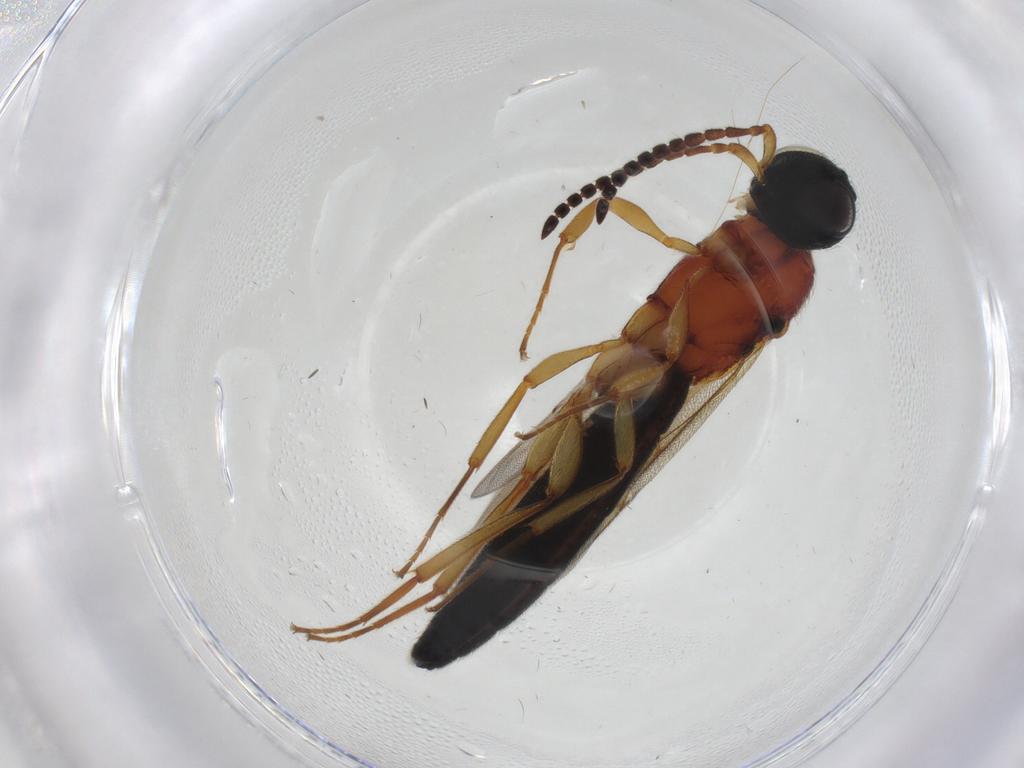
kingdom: Animalia
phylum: Arthropoda
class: Insecta
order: Hymenoptera
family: Scelionidae
